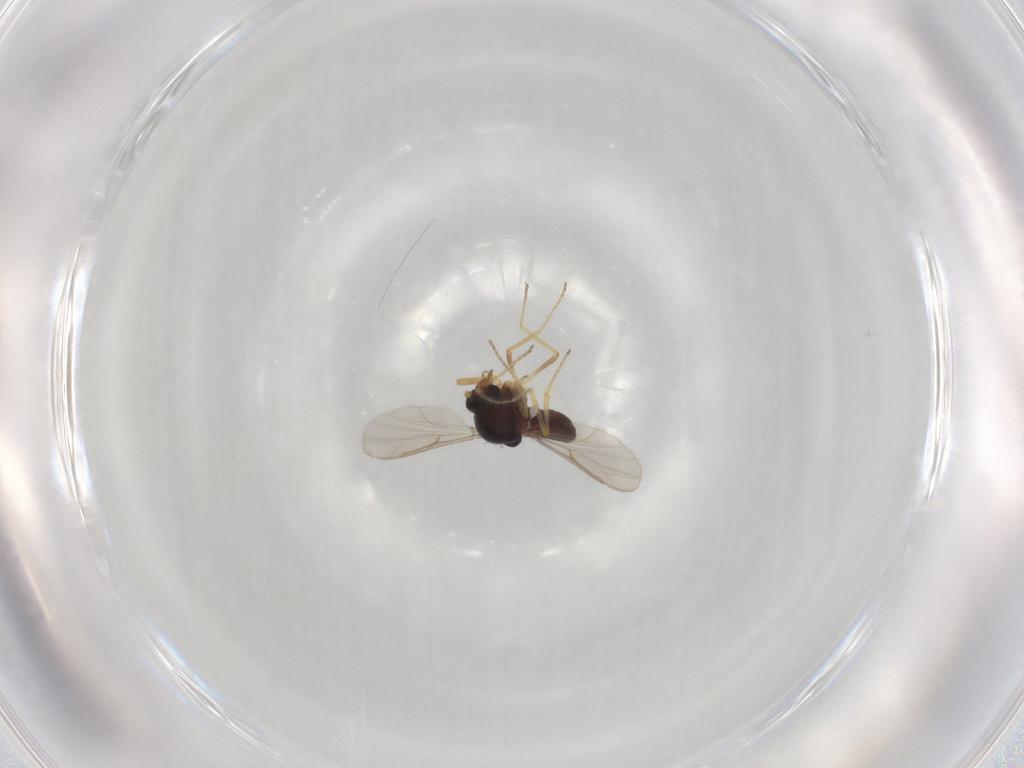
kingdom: Animalia
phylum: Arthropoda
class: Insecta
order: Diptera
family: Ceratopogonidae
